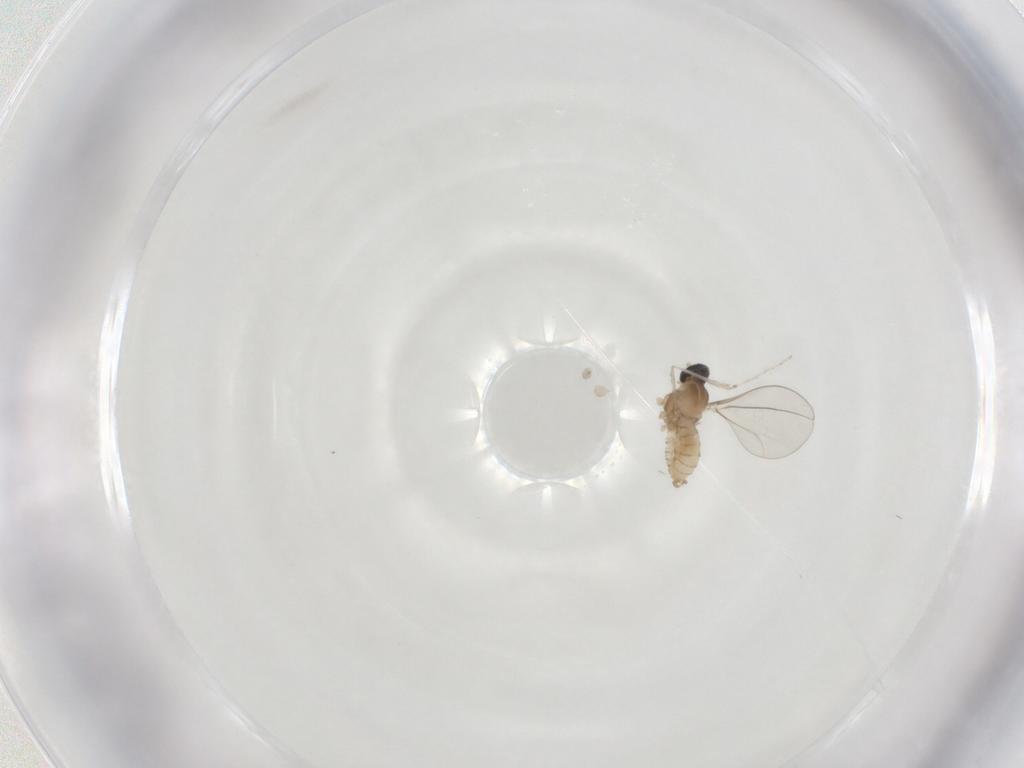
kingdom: Animalia
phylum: Arthropoda
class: Insecta
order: Diptera
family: Cecidomyiidae
